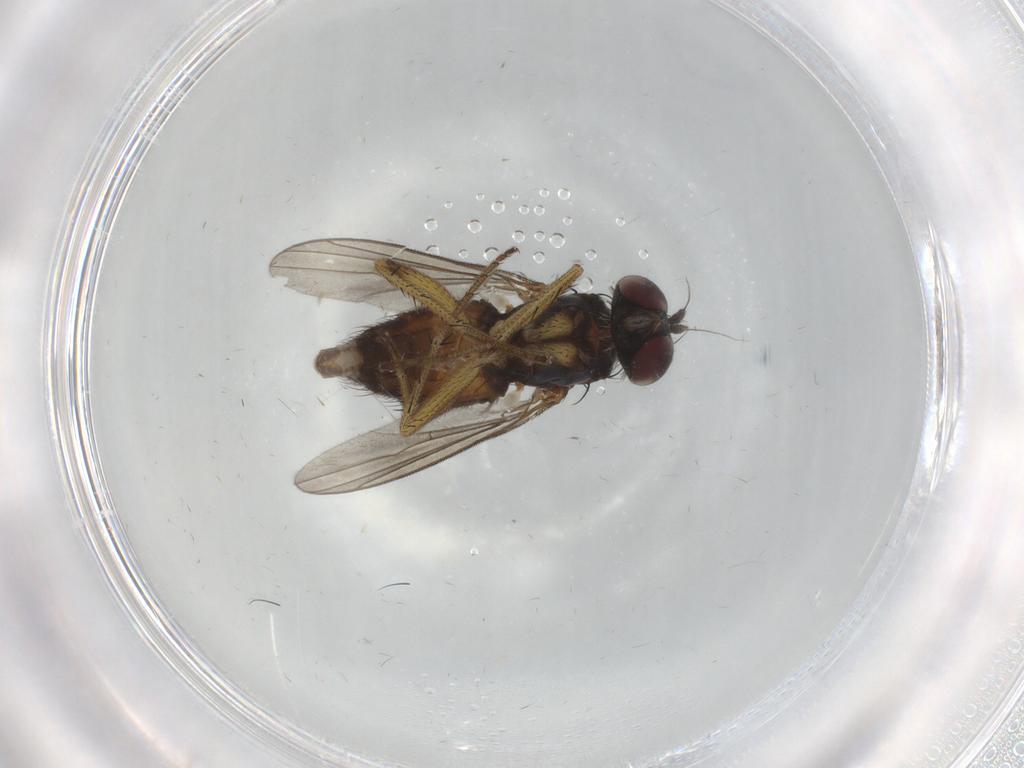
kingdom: Animalia
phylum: Arthropoda
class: Insecta
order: Diptera
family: Dolichopodidae
